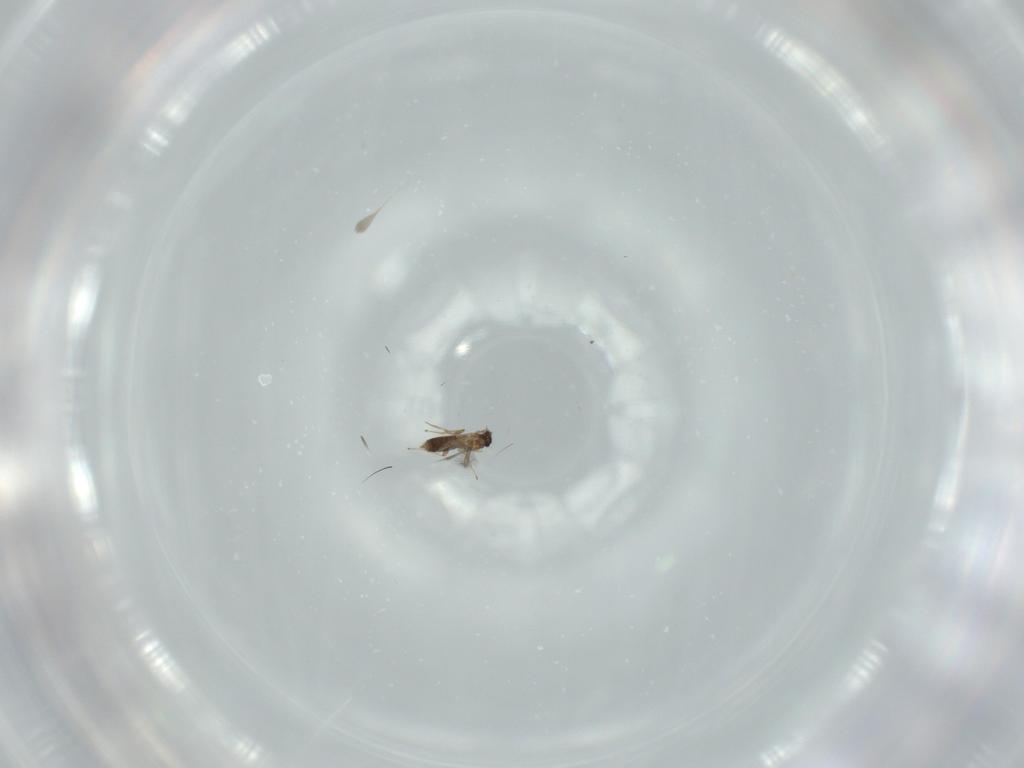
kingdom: Animalia
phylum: Arthropoda
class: Insecta
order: Hymenoptera
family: Mymaridae
